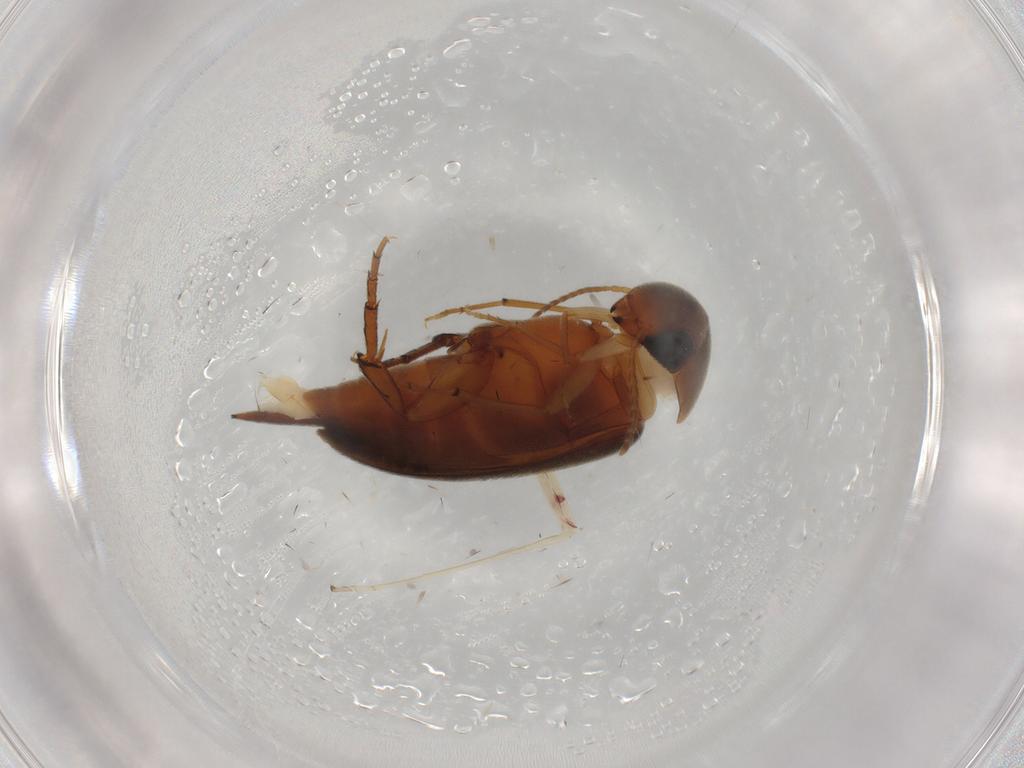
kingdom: Animalia
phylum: Arthropoda
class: Insecta
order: Coleoptera
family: Mordellidae
